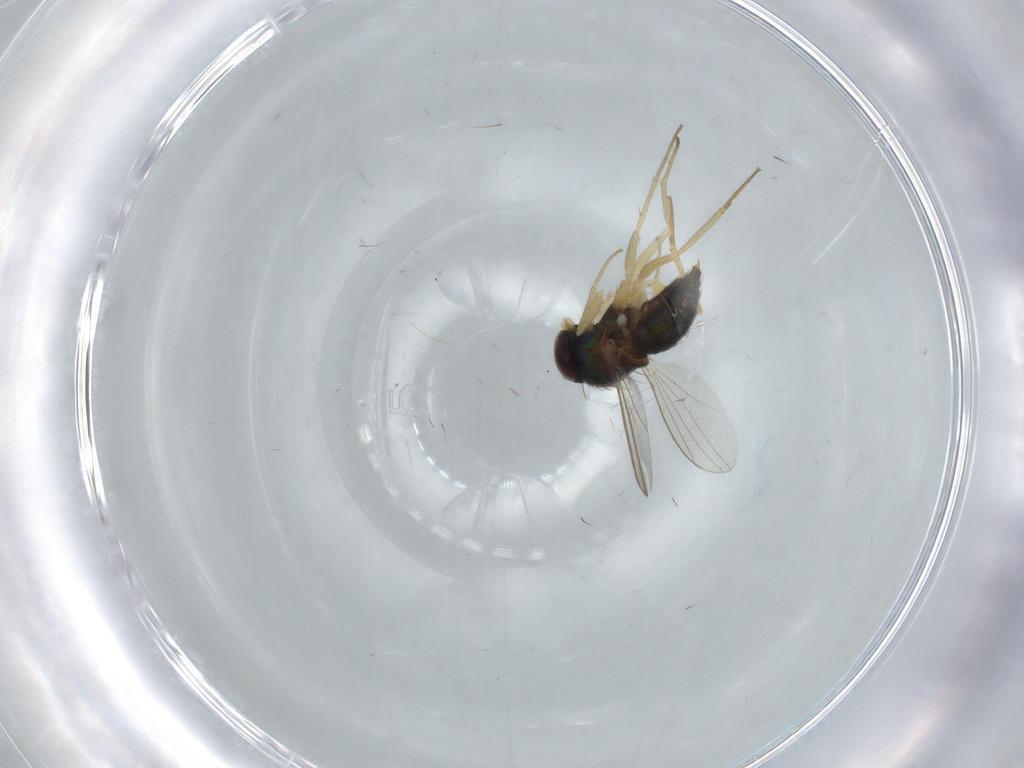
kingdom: Animalia
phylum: Arthropoda
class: Insecta
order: Diptera
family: Dolichopodidae
